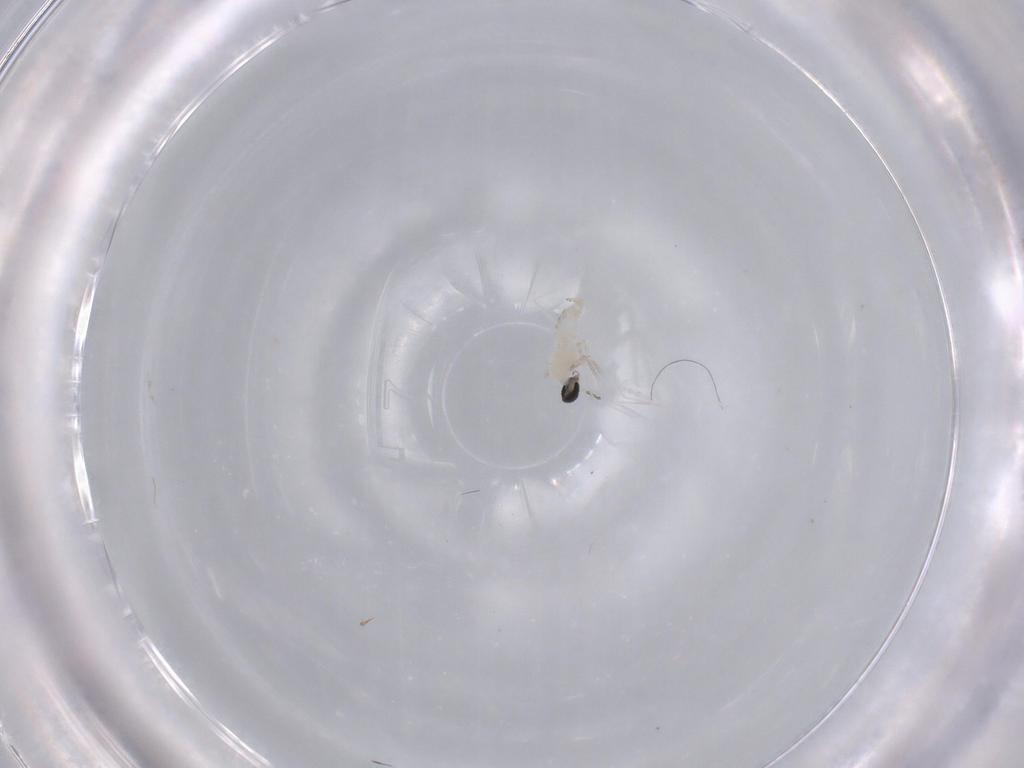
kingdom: Animalia
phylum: Arthropoda
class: Insecta
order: Diptera
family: Cecidomyiidae
